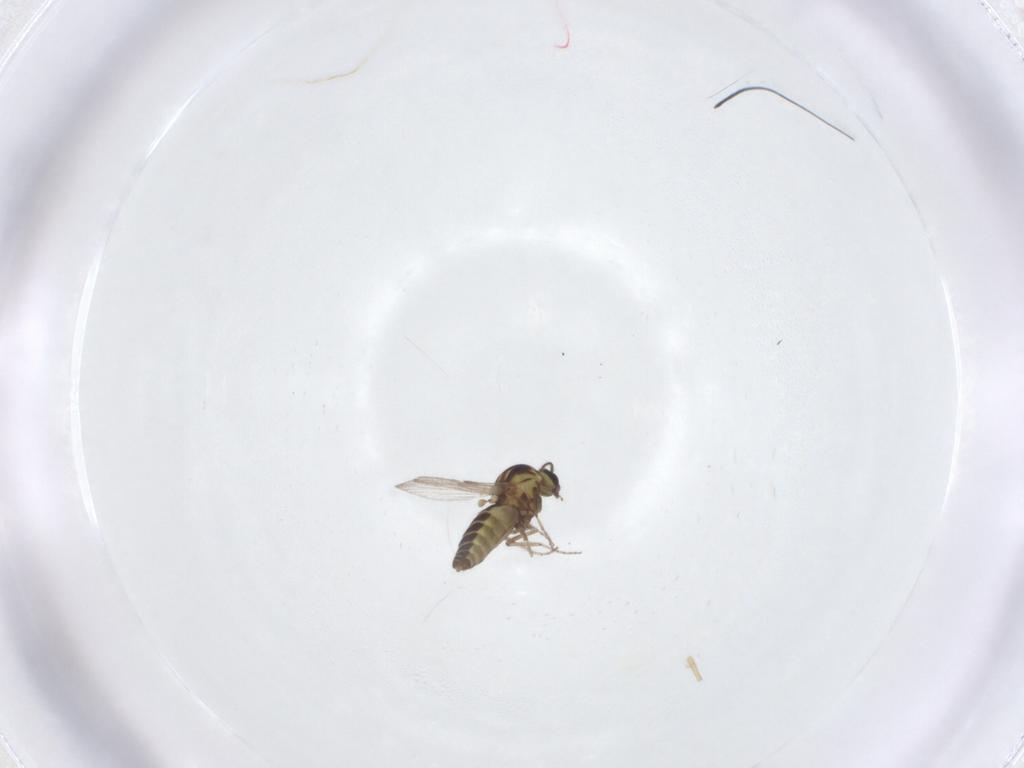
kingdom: Animalia
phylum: Arthropoda
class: Insecta
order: Diptera
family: Ceratopogonidae
